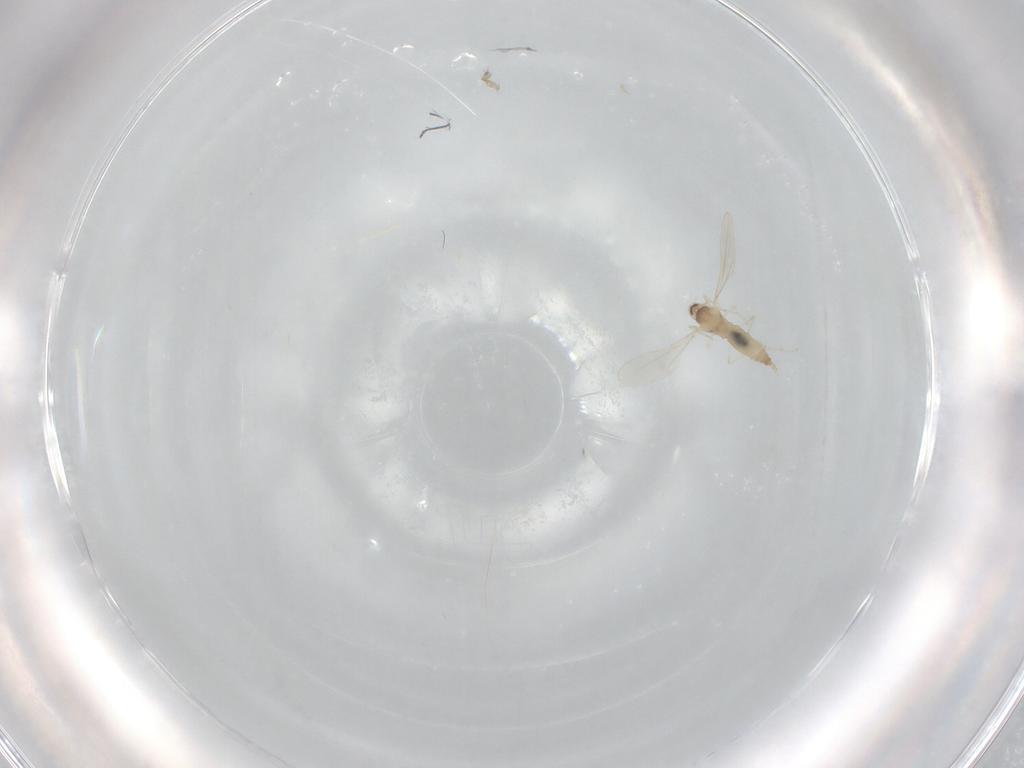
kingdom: Animalia
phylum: Arthropoda
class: Insecta
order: Diptera
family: Cecidomyiidae
